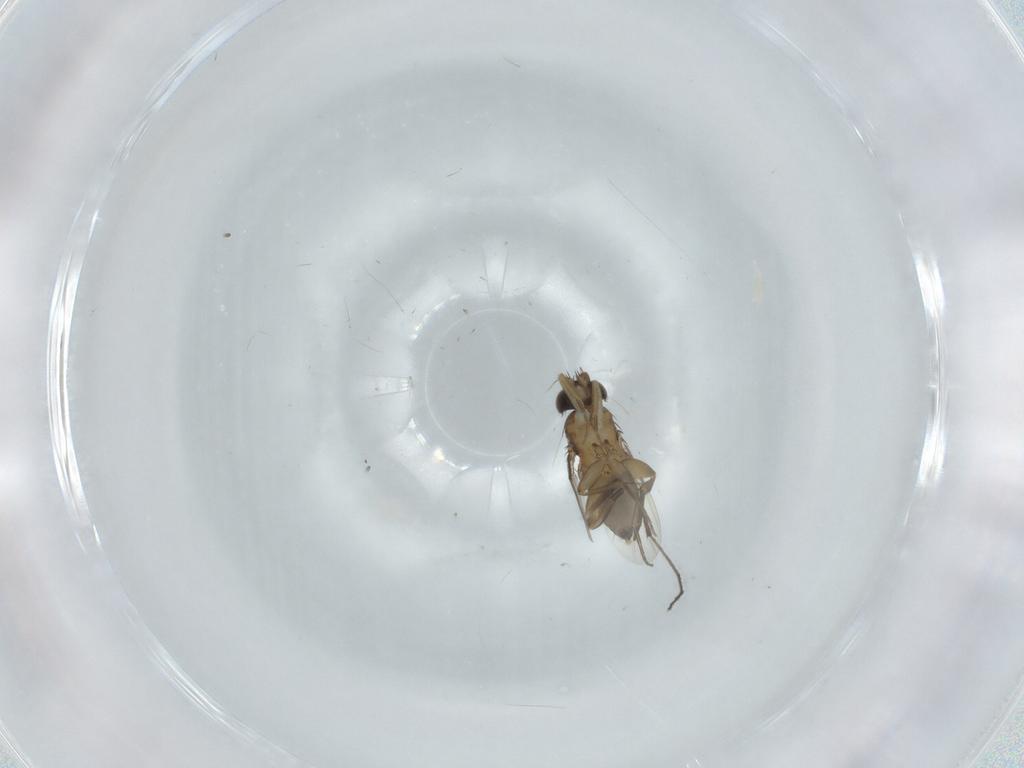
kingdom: Animalia
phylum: Arthropoda
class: Insecta
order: Diptera
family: Phoridae
